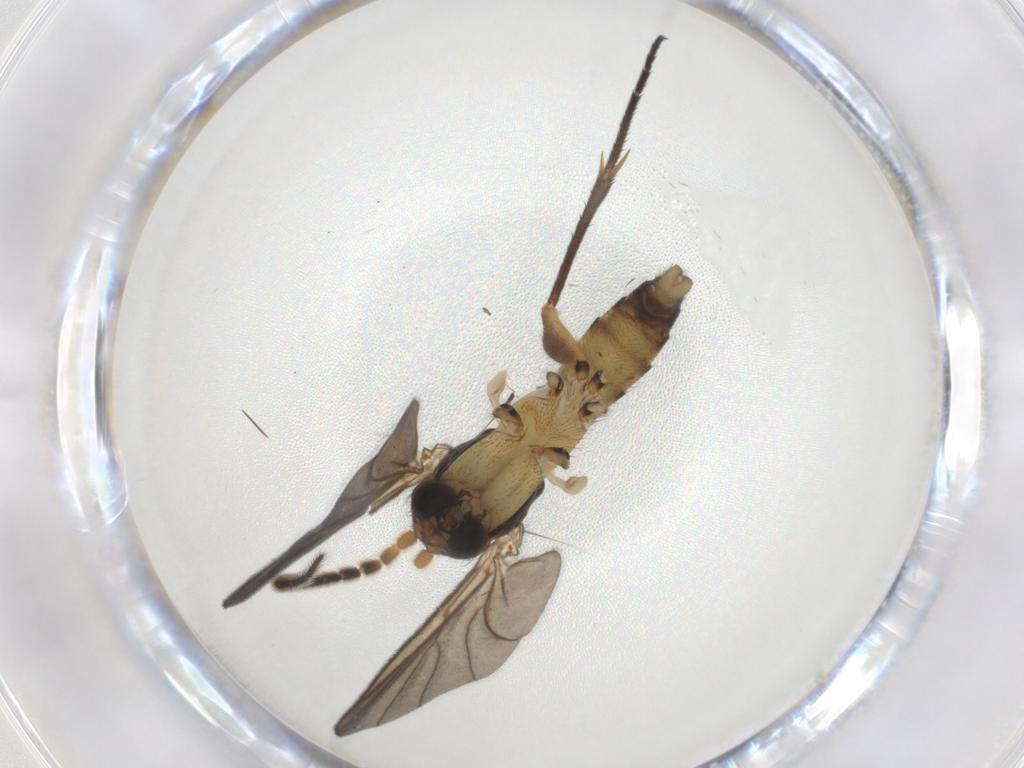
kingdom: Animalia
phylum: Arthropoda
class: Insecta
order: Diptera
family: Mycetophilidae
